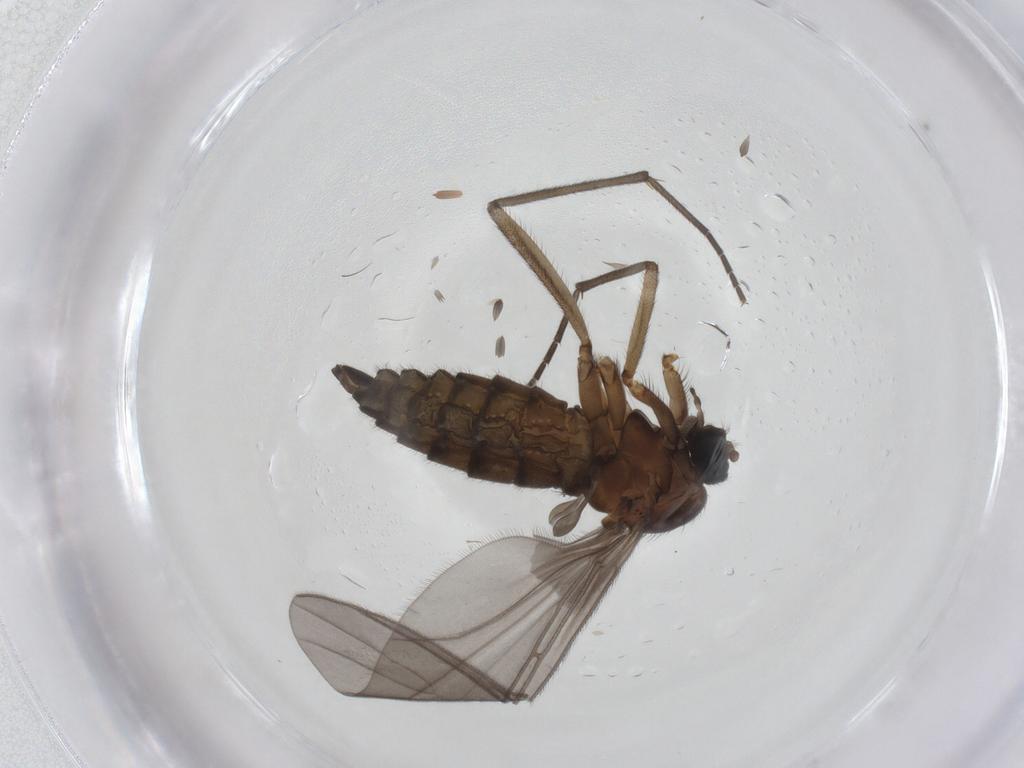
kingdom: Animalia
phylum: Arthropoda
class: Insecta
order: Diptera
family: Sciaridae
